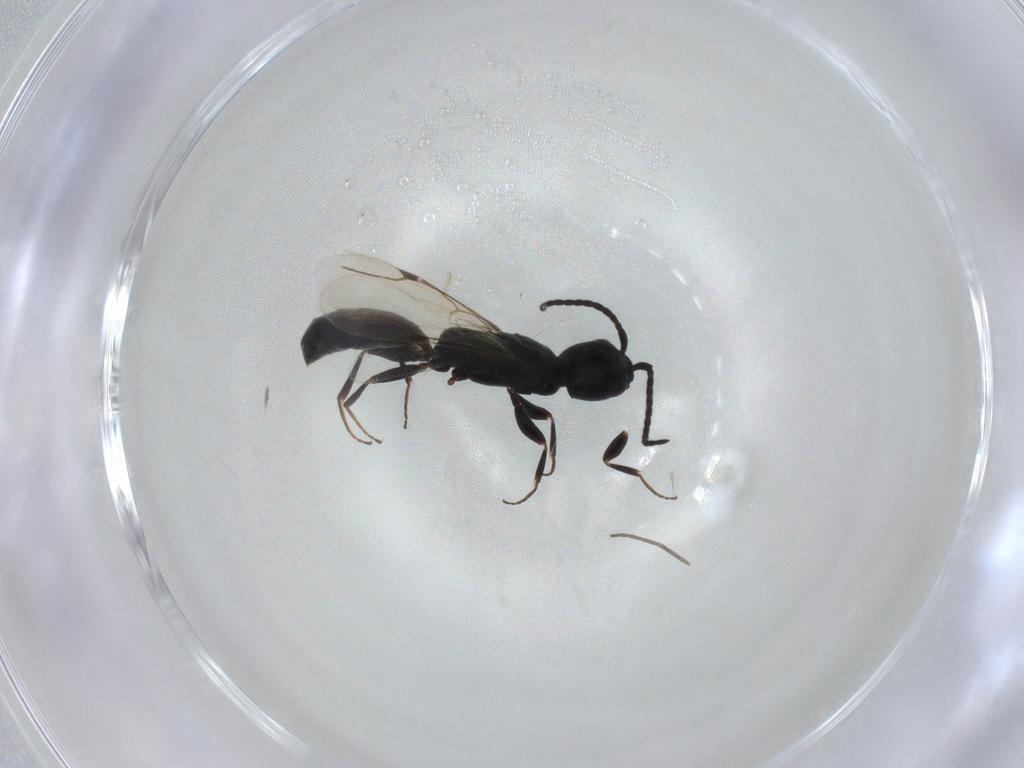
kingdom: Animalia
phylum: Arthropoda
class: Insecta
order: Hymenoptera
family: Bethylidae
